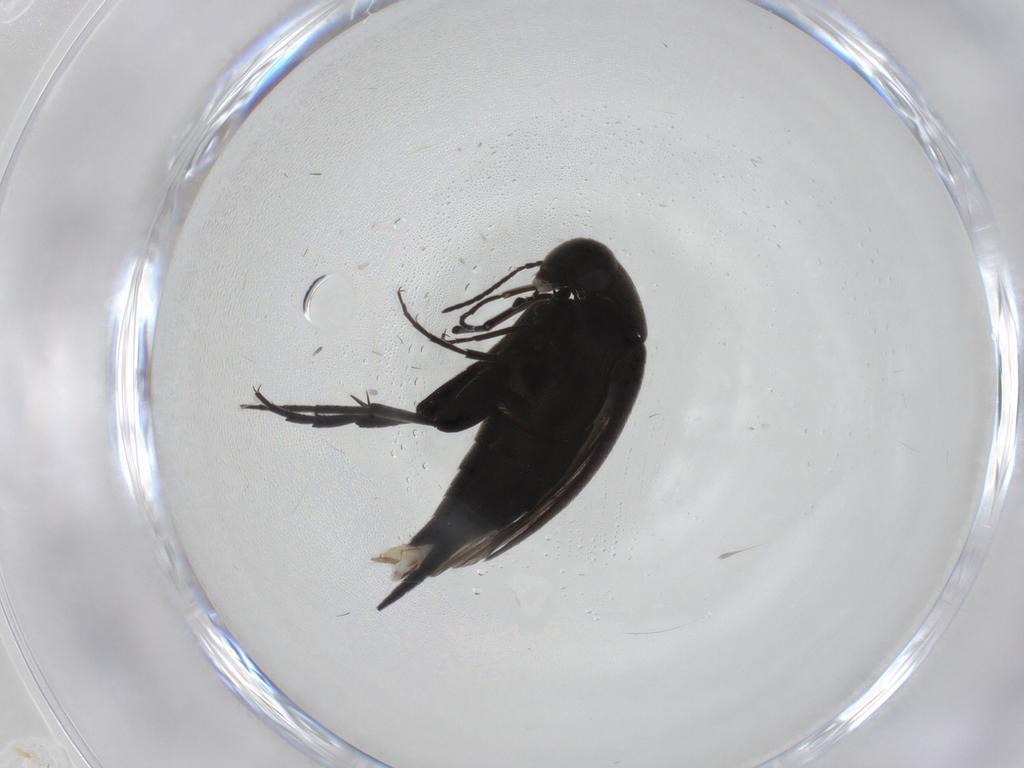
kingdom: Animalia
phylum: Arthropoda
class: Insecta
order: Coleoptera
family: Mordellidae
